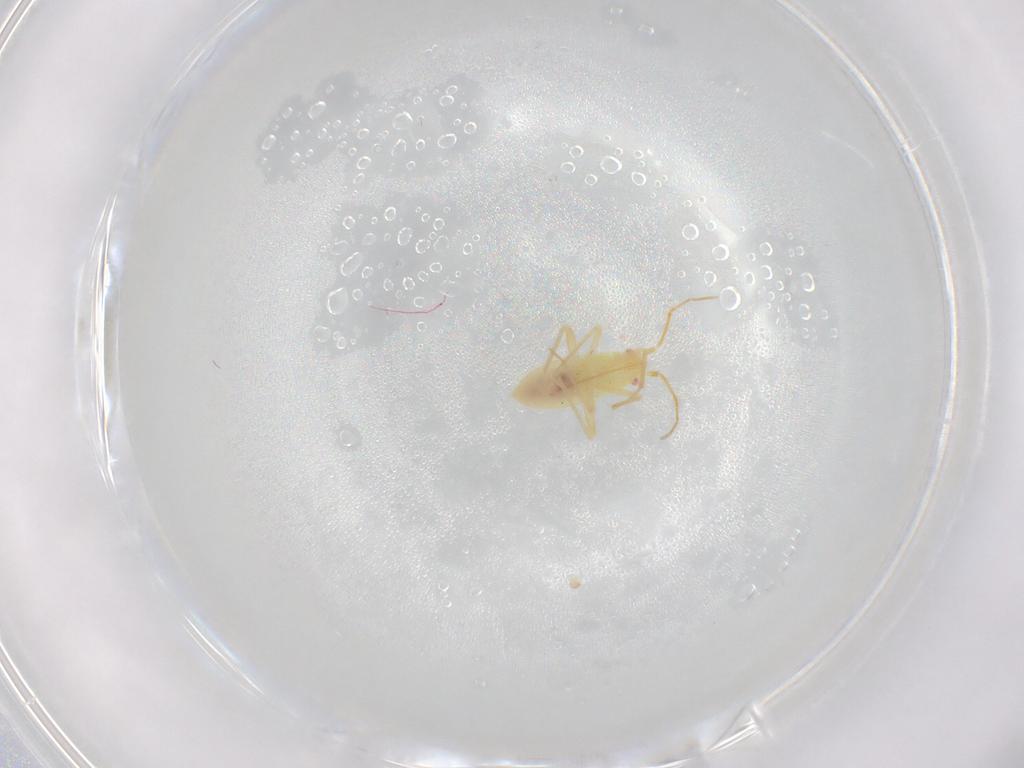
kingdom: Animalia
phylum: Arthropoda
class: Insecta
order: Hemiptera
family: Miridae
